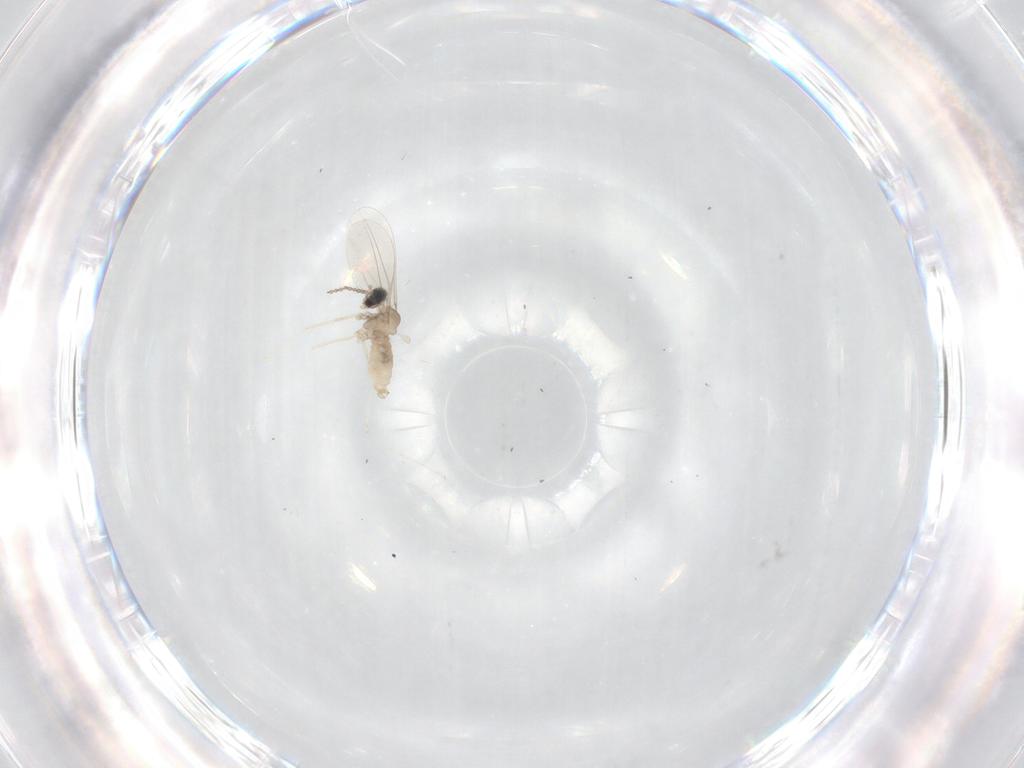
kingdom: Animalia
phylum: Arthropoda
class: Insecta
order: Diptera
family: Cecidomyiidae
